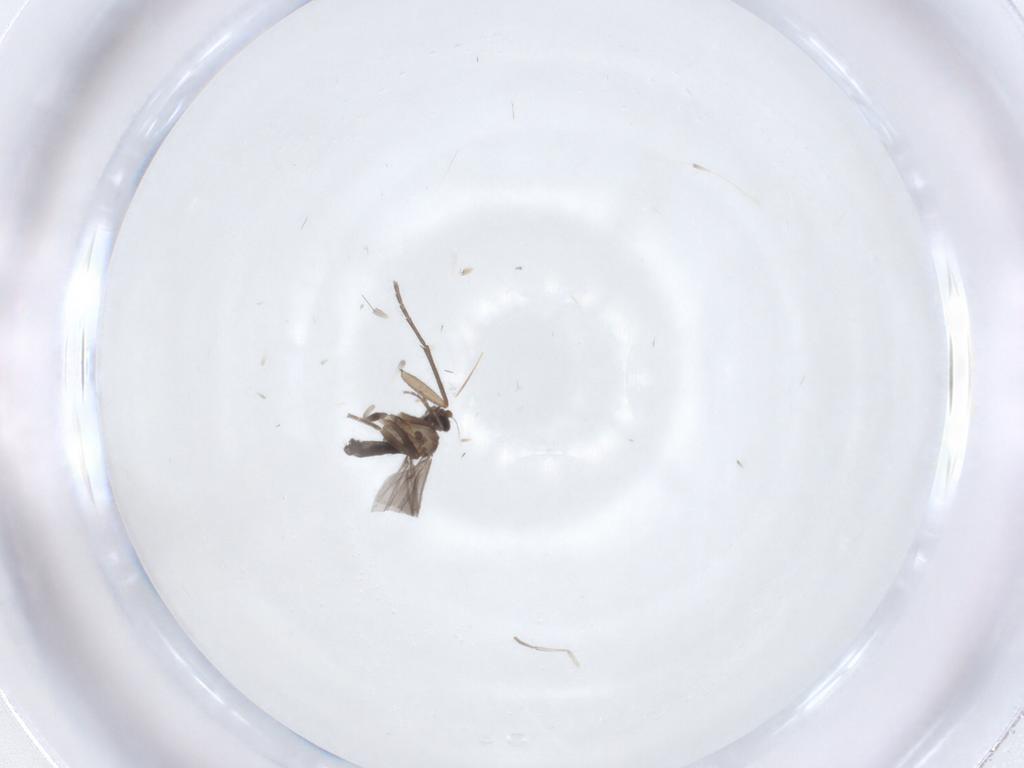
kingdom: Animalia
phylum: Arthropoda
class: Insecta
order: Diptera
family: Phoridae
